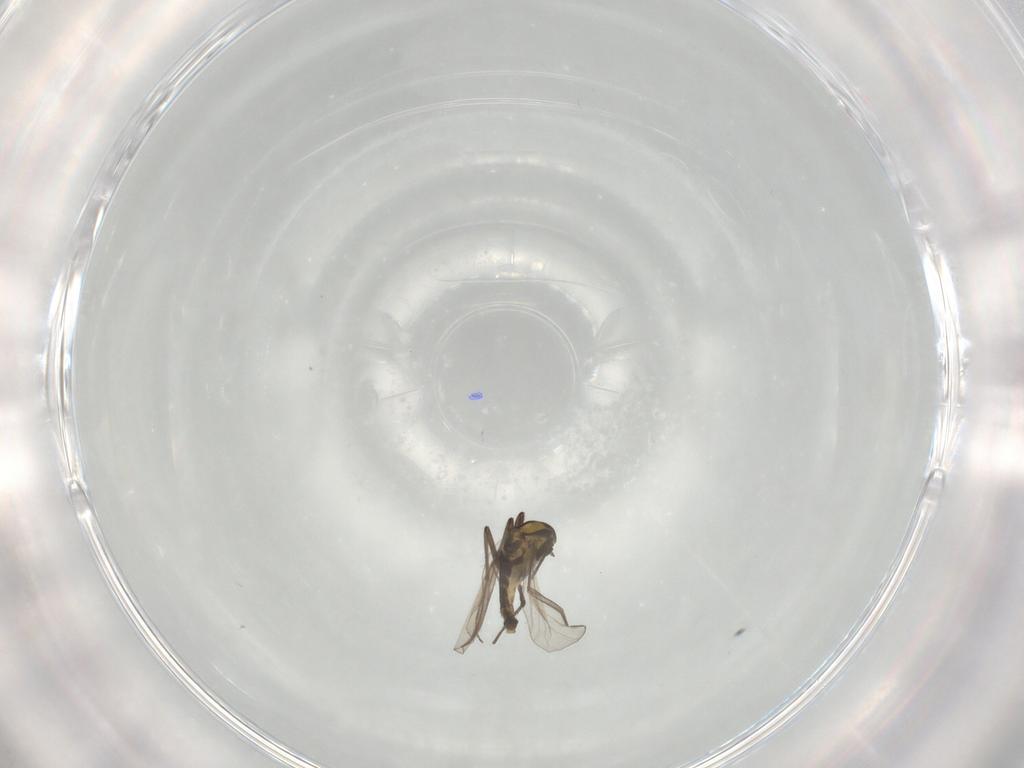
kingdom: Animalia
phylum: Arthropoda
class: Insecta
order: Diptera
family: Chironomidae
